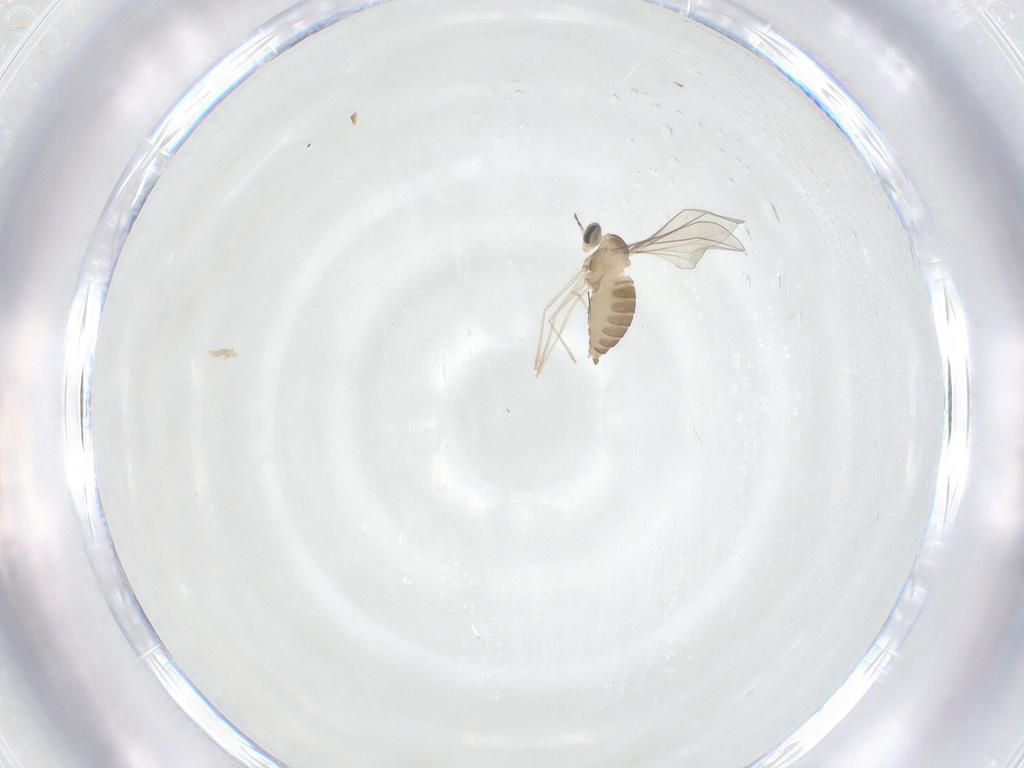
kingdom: Animalia
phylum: Arthropoda
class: Insecta
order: Diptera
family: Cecidomyiidae
